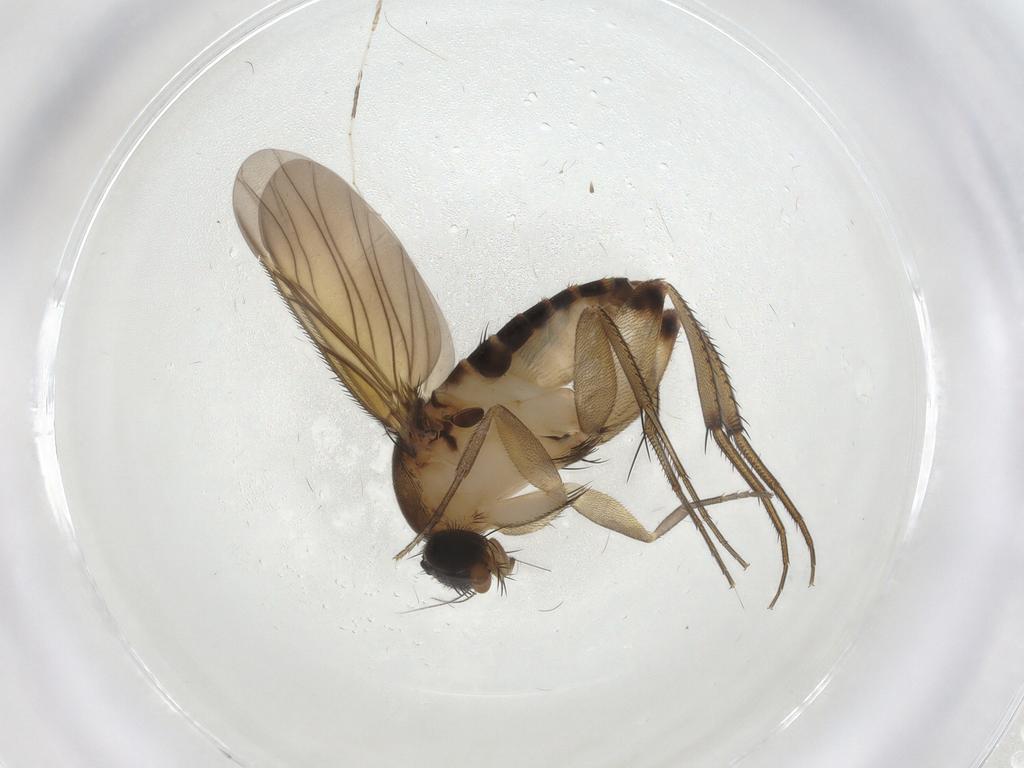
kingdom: Animalia
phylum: Arthropoda
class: Insecta
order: Diptera
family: Phoridae
